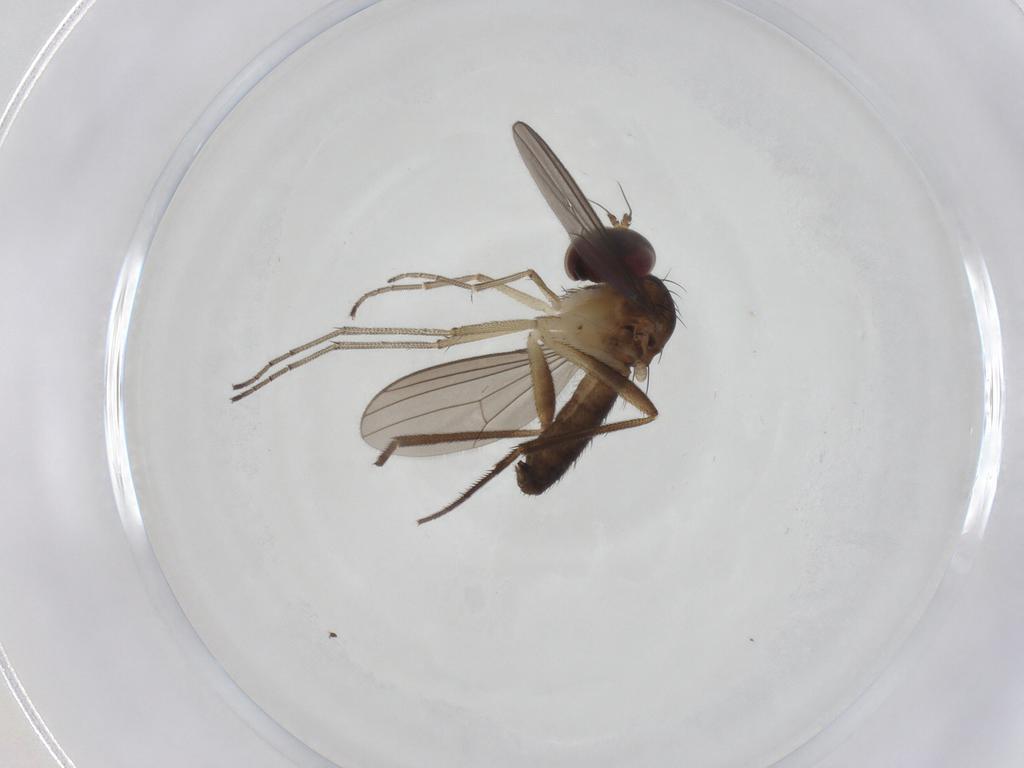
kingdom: Animalia
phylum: Arthropoda
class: Insecta
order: Diptera
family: Dolichopodidae
